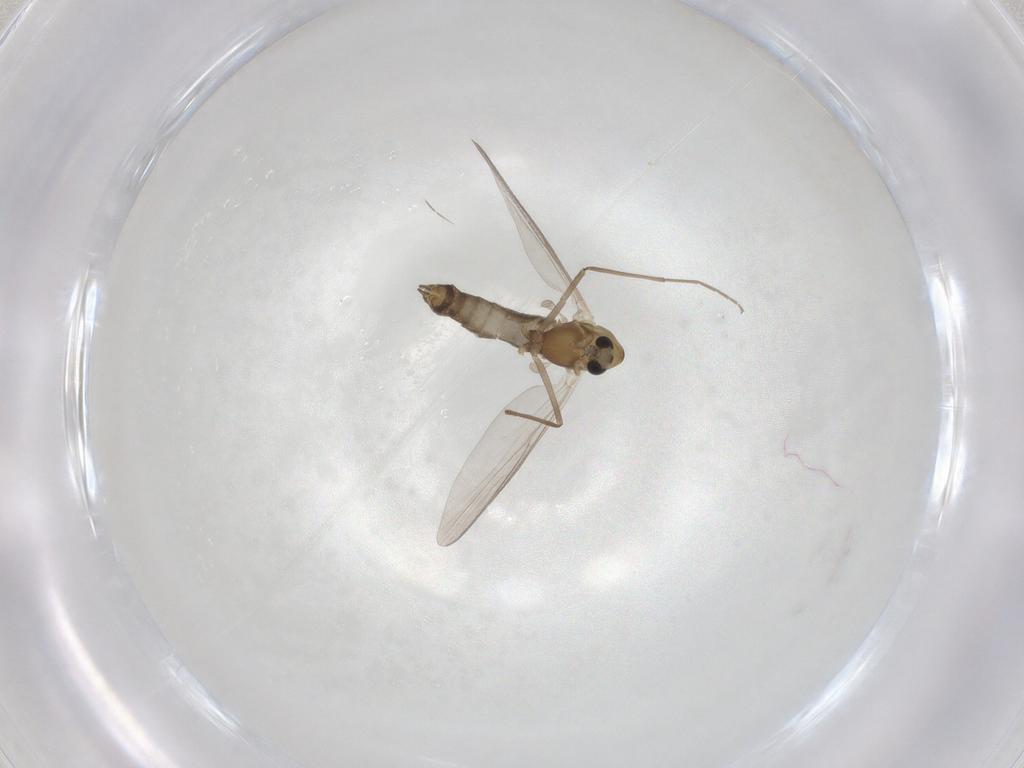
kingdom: Animalia
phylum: Arthropoda
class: Insecta
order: Diptera
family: Chironomidae
